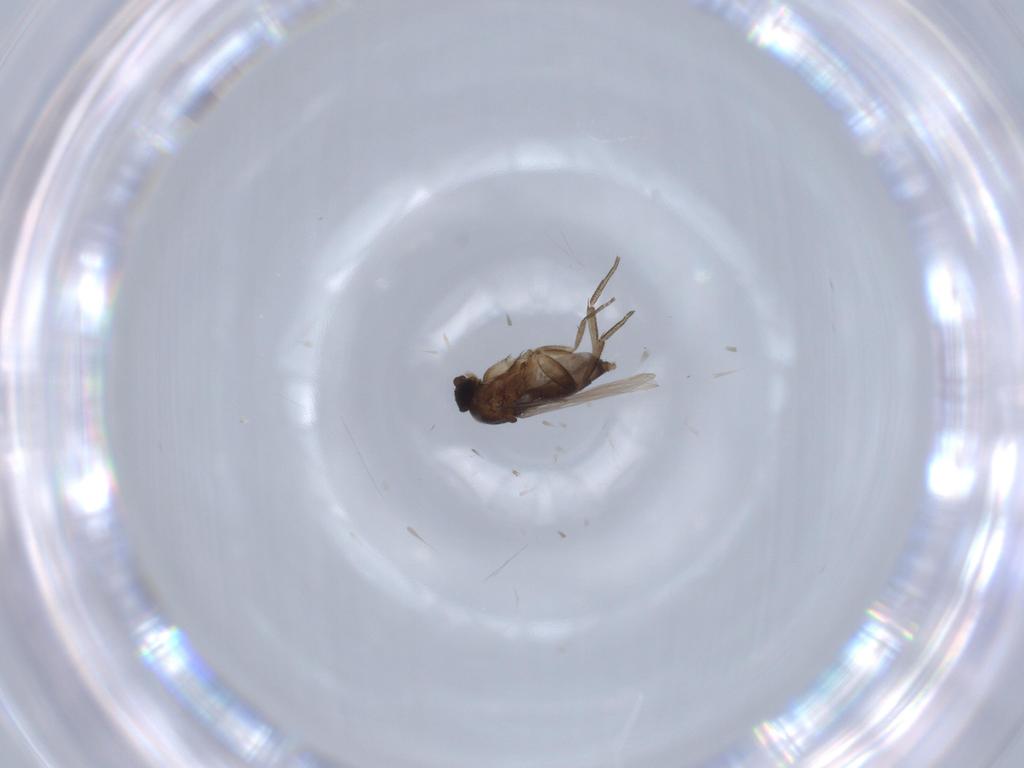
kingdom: Animalia
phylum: Arthropoda
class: Insecta
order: Diptera
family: Phoridae
